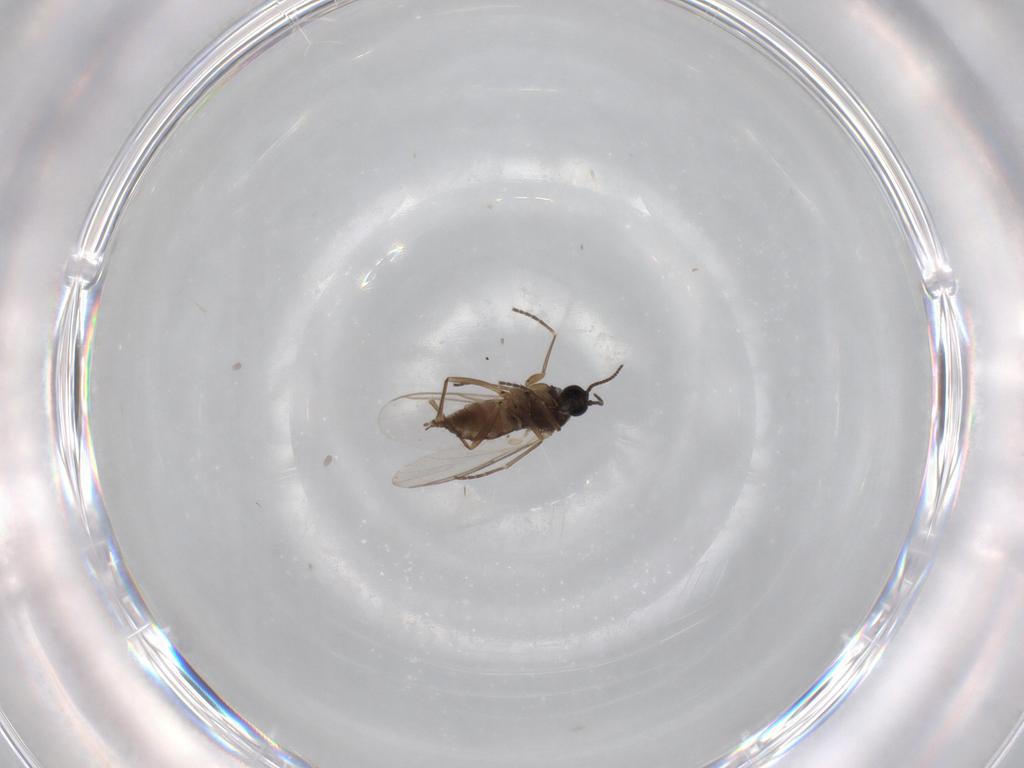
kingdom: Animalia
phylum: Arthropoda
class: Insecta
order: Diptera
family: Sciaridae
